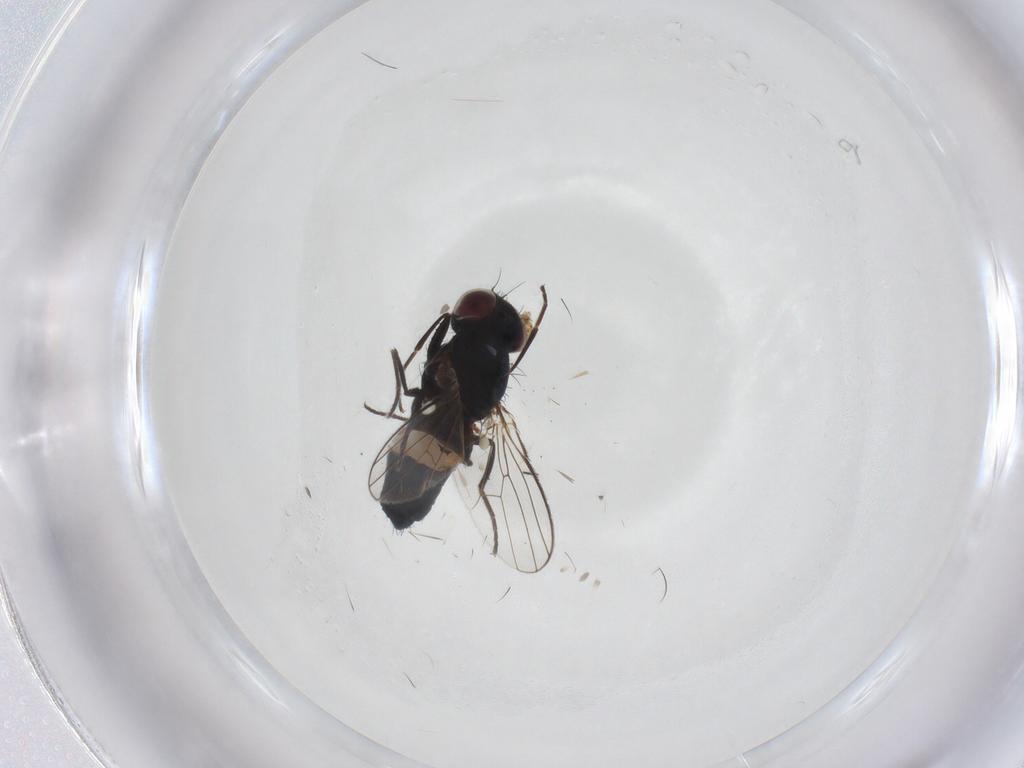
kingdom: Animalia
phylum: Arthropoda
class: Insecta
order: Diptera
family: Carnidae
